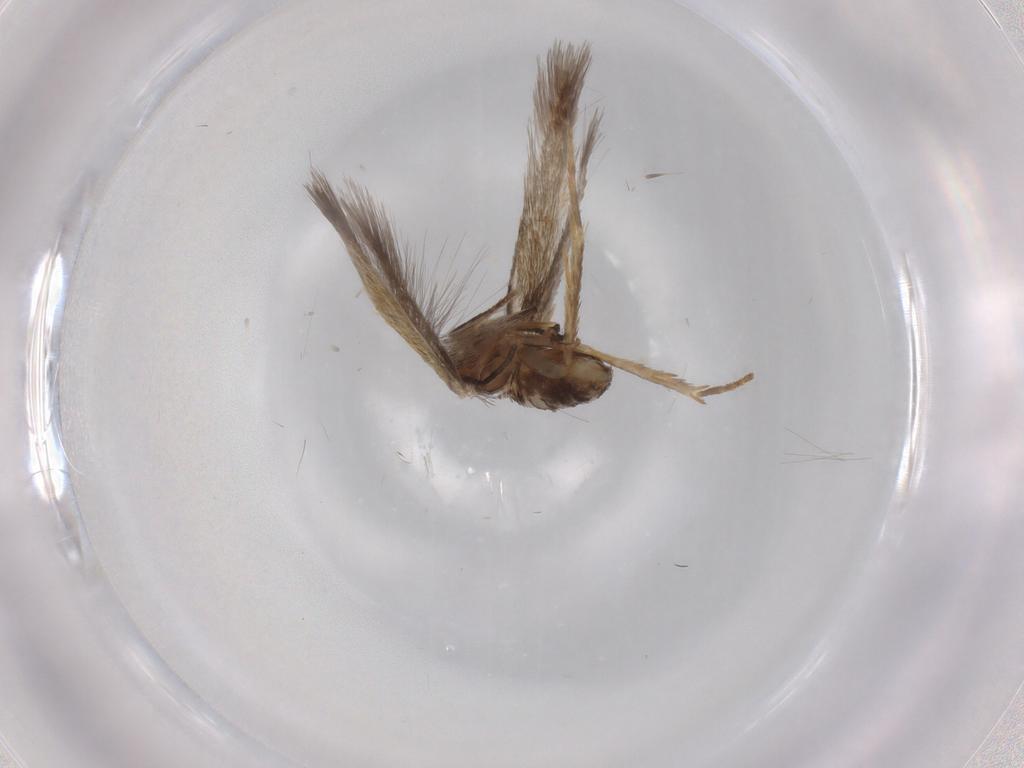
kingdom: Animalia
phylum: Arthropoda
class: Insecta
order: Lepidoptera
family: Nepticulidae
